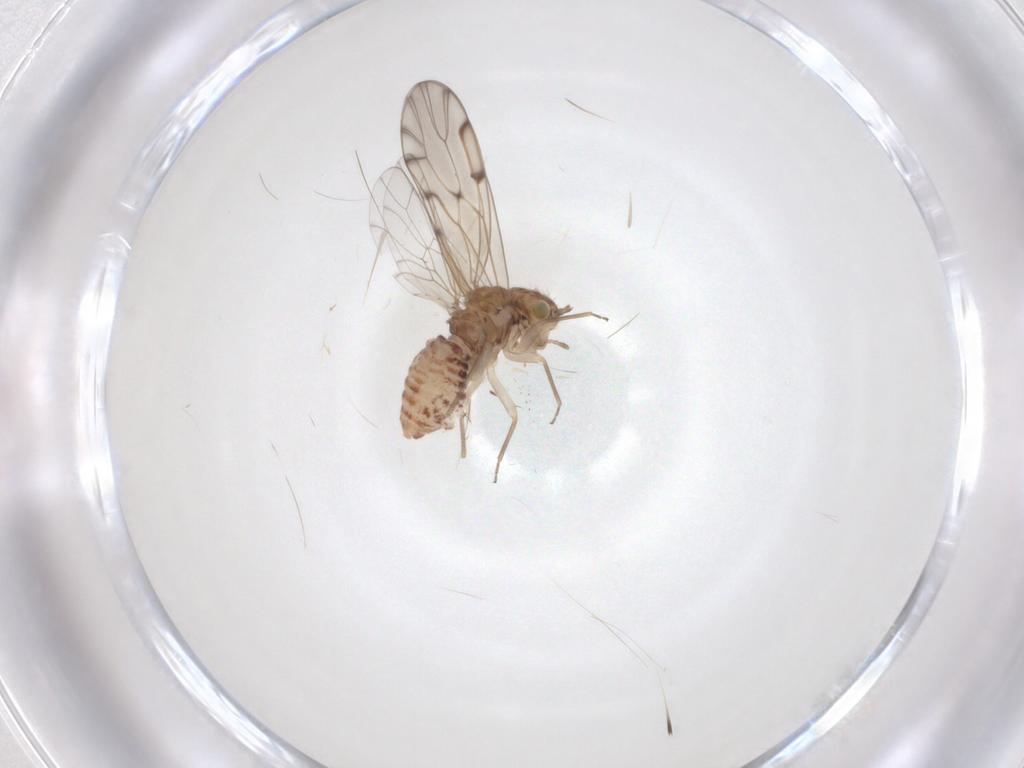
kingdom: Animalia
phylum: Arthropoda
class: Insecta
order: Psocodea
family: Ectopsocidae
